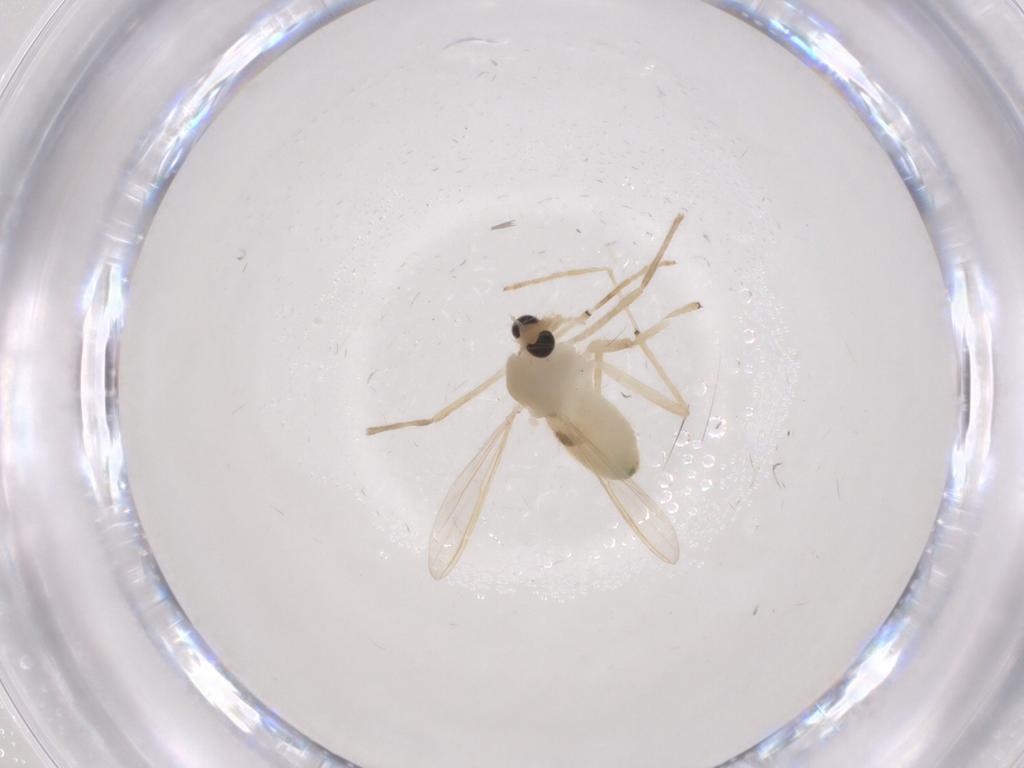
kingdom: Animalia
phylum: Arthropoda
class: Insecta
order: Diptera
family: Chironomidae
